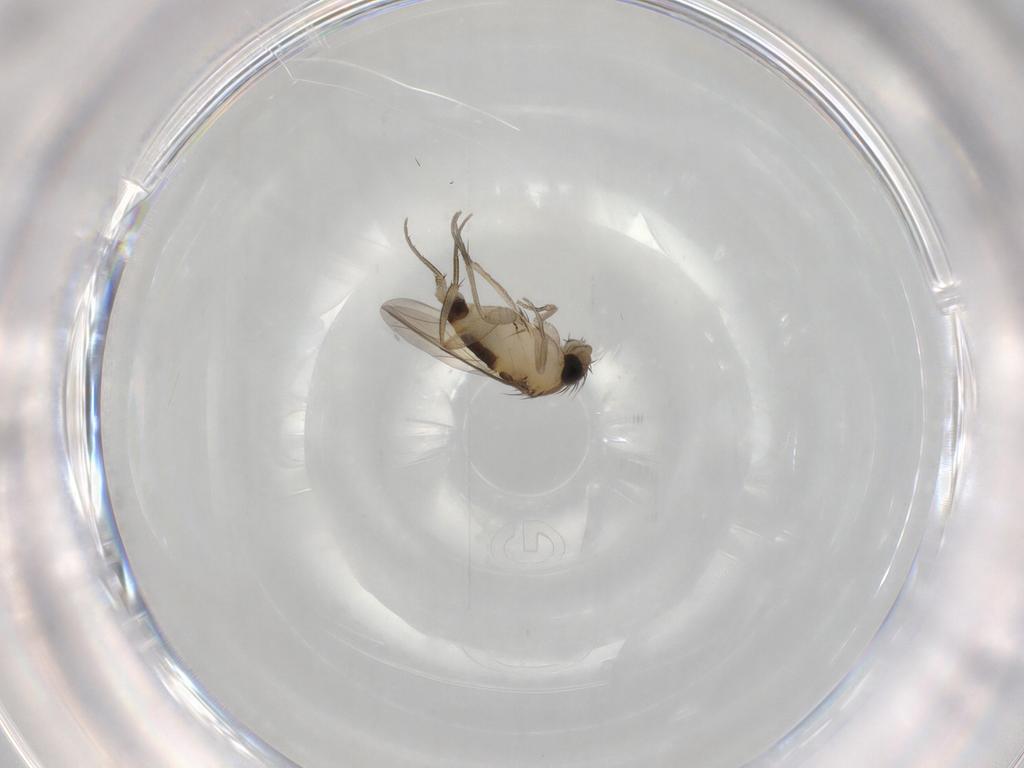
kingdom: Animalia
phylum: Arthropoda
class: Insecta
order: Diptera
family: Phoridae
